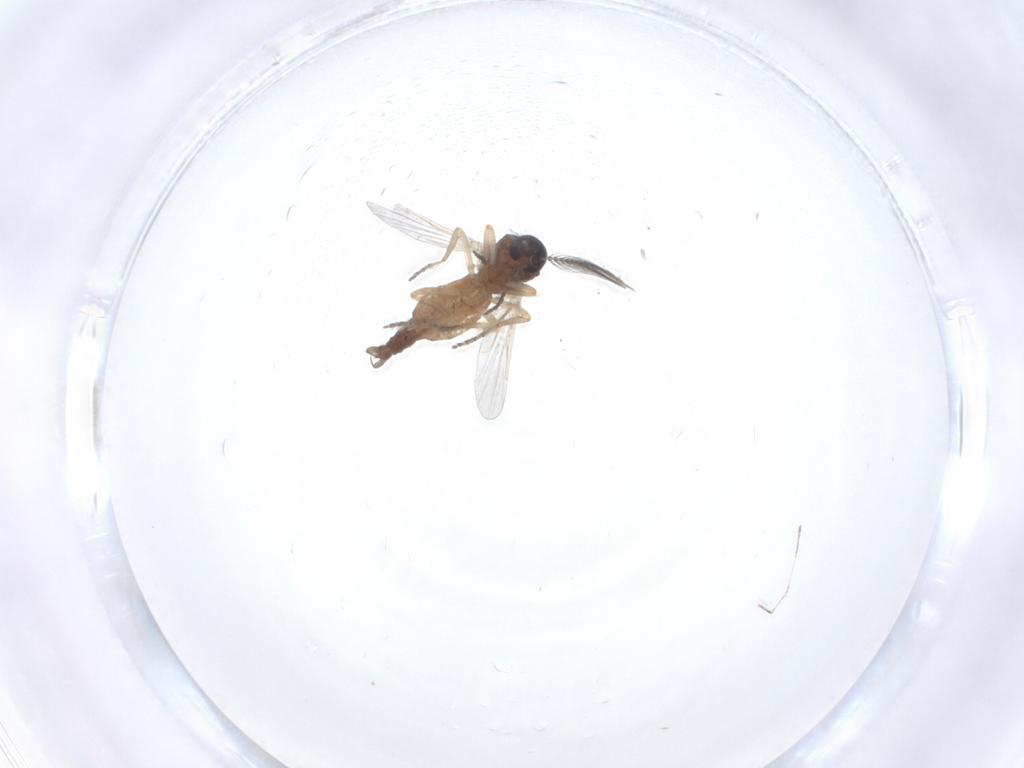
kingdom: Animalia
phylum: Arthropoda
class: Insecta
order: Diptera
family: Ceratopogonidae
